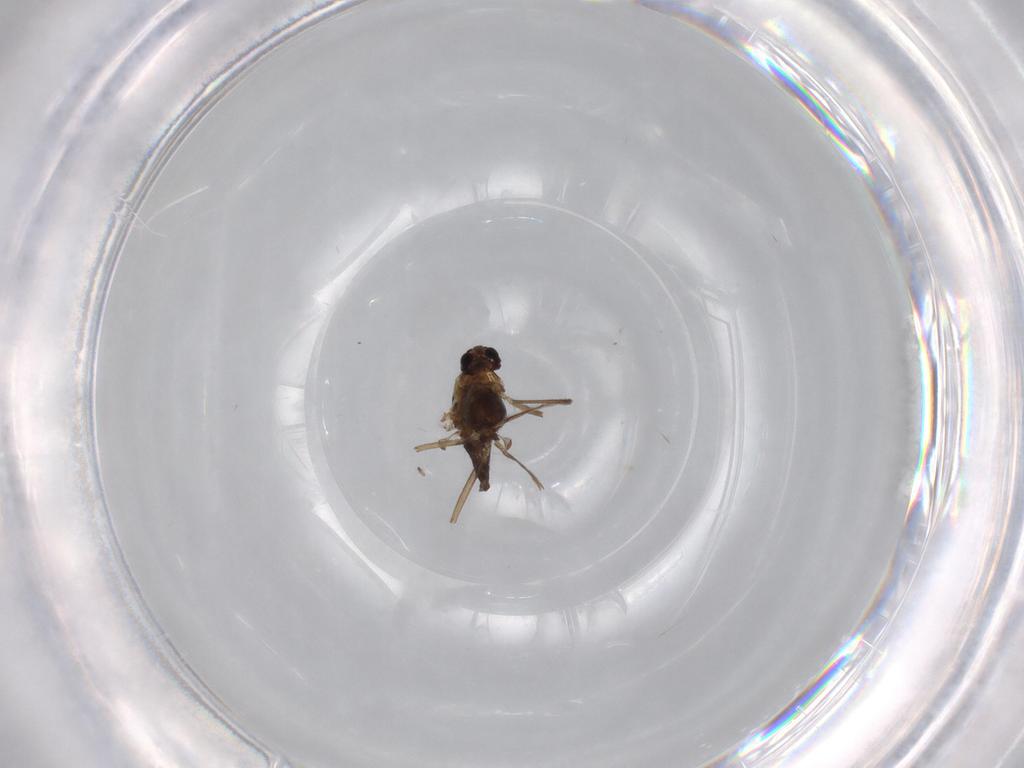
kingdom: Animalia
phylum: Arthropoda
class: Insecta
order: Diptera
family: Chironomidae
